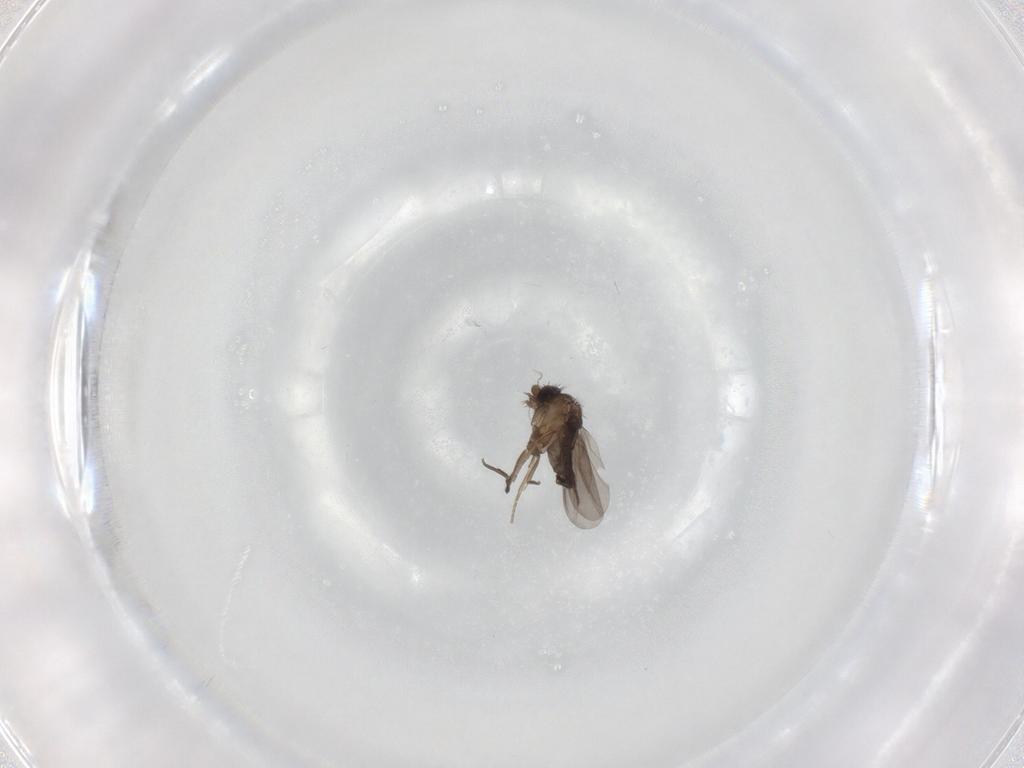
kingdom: Animalia
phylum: Arthropoda
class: Insecta
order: Diptera
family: Phoridae
